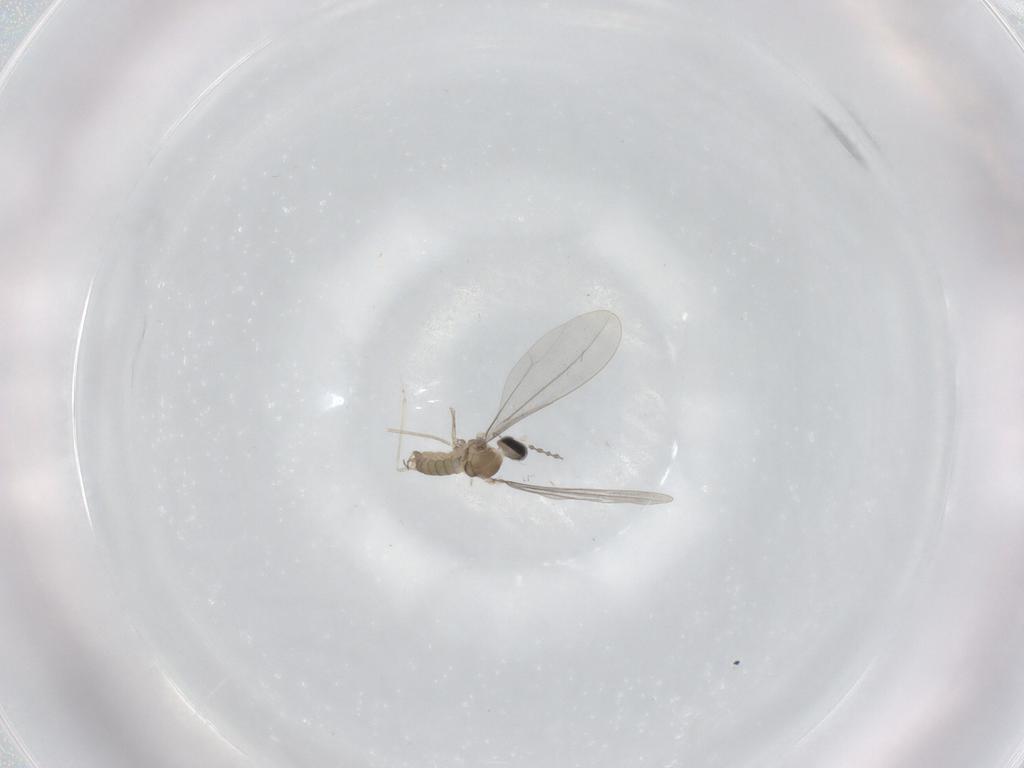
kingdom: Animalia
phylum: Arthropoda
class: Insecta
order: Diptera
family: Cecidomyiidae
